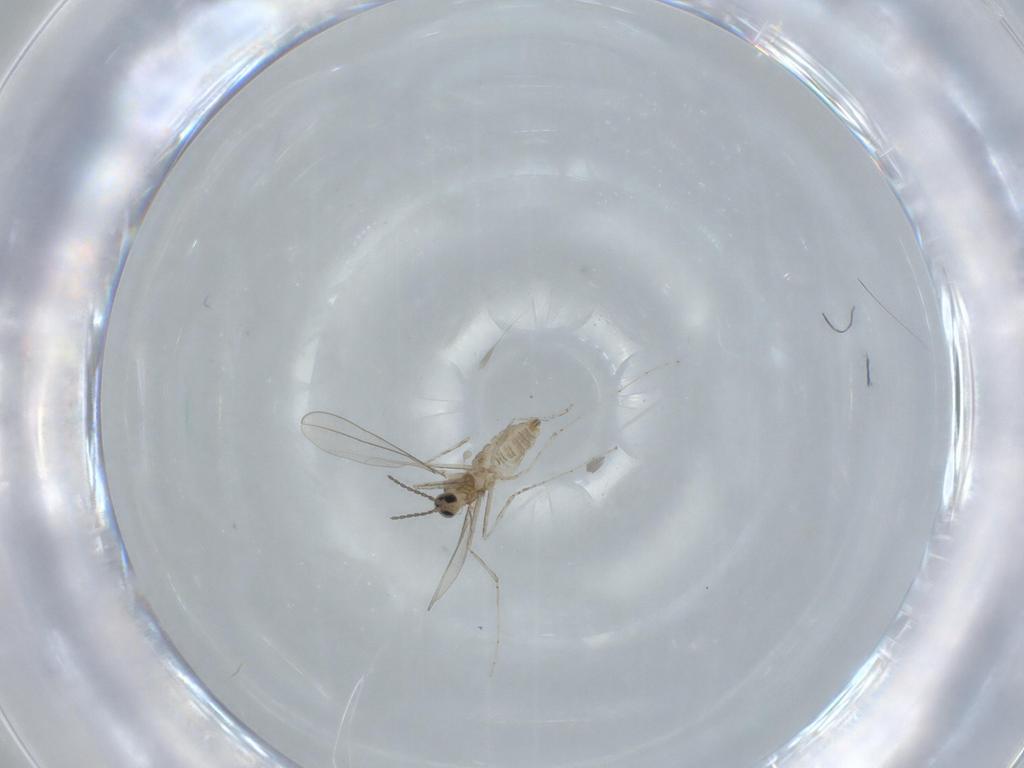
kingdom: Animalia
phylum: Arthropoda
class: Insecta
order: Diptera
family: Cecidomyiidae
